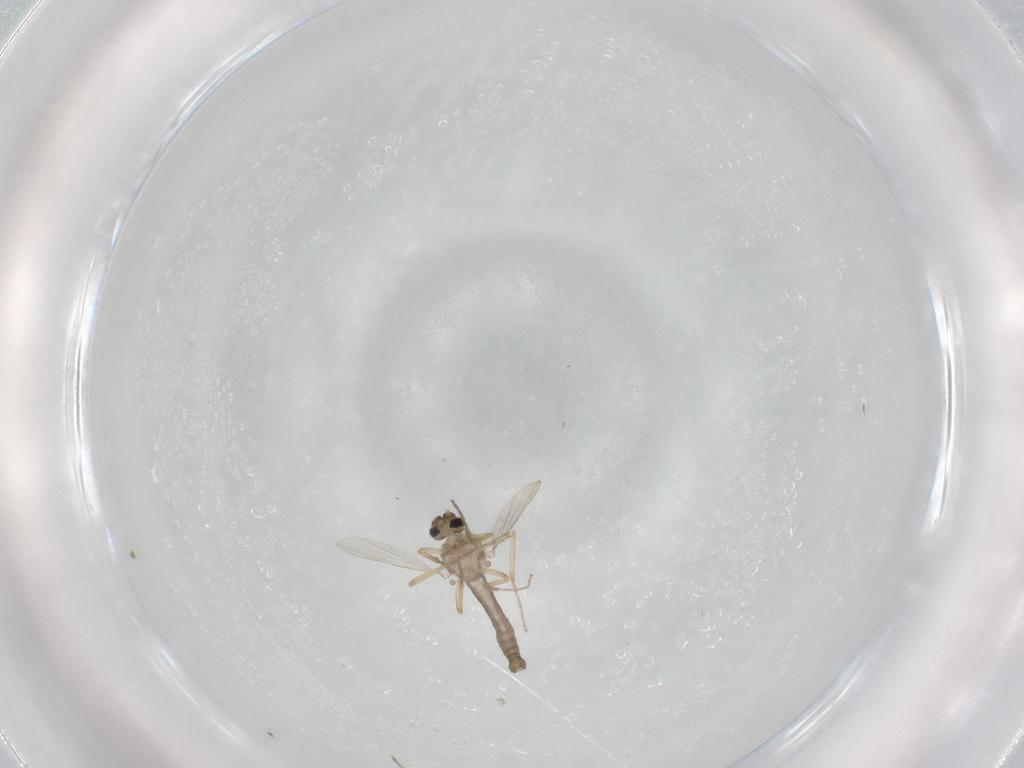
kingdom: Animalia
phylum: Arthropoda
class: Insecta
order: Diptera
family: Ceratopogonidae
